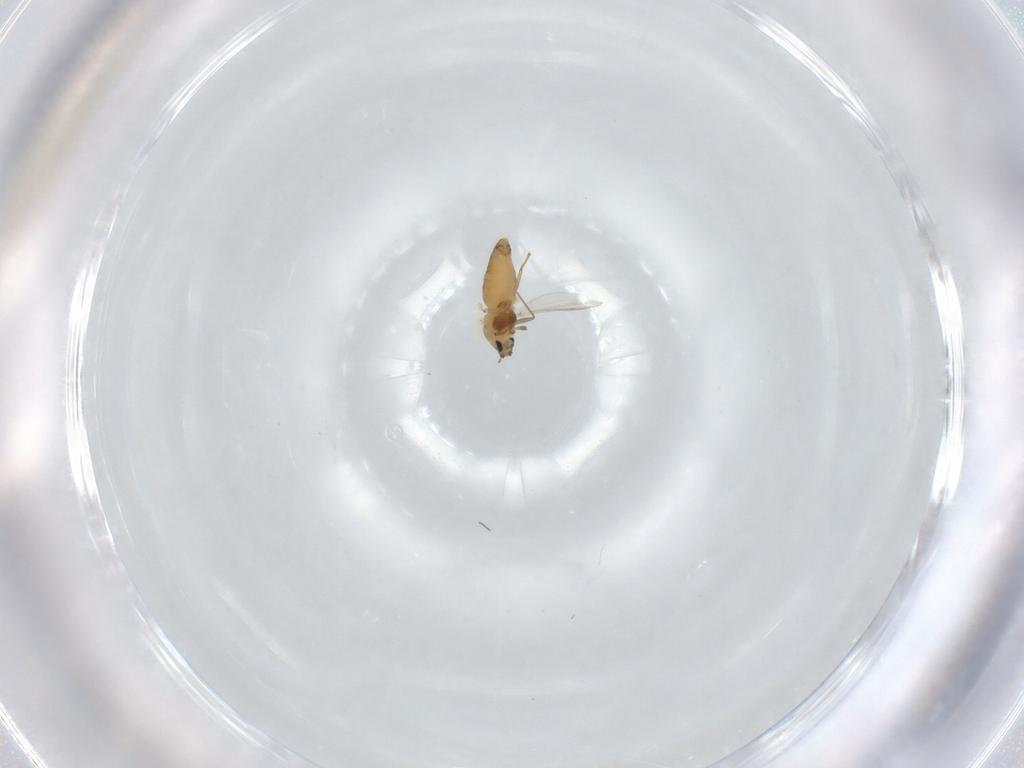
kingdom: Animalia
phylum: Arthropoda
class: Insecta
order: Diptera
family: Chironomidae
